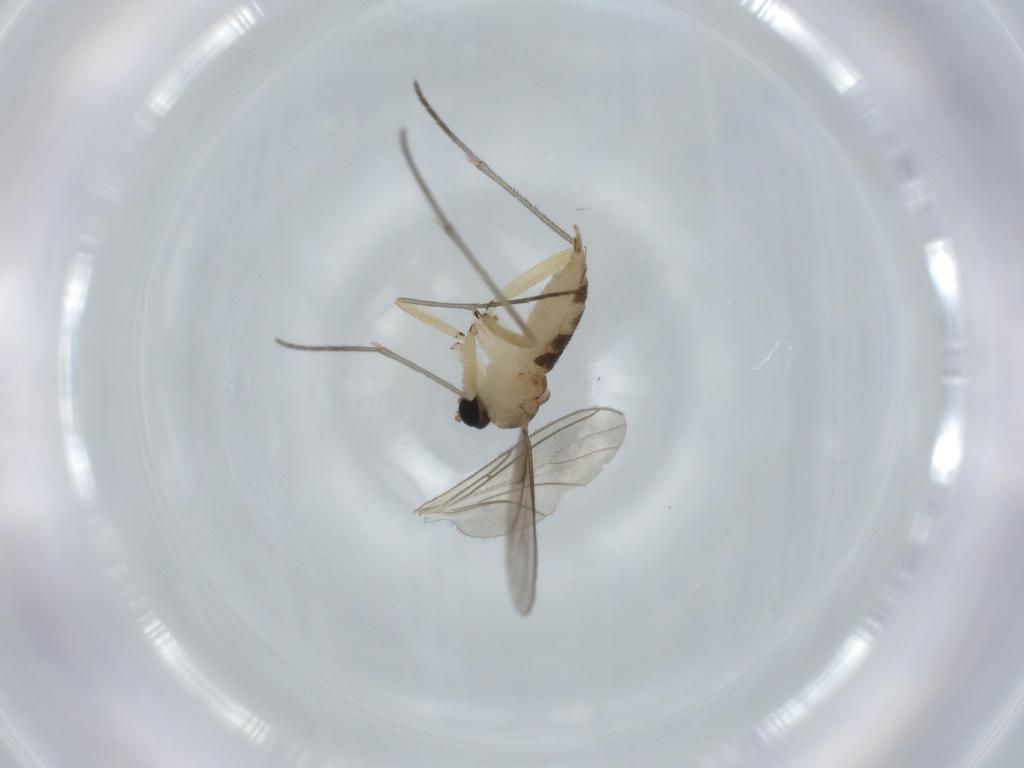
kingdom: Animalia
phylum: Arthropoda
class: Insecta
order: Diptera
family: Sciaridae
